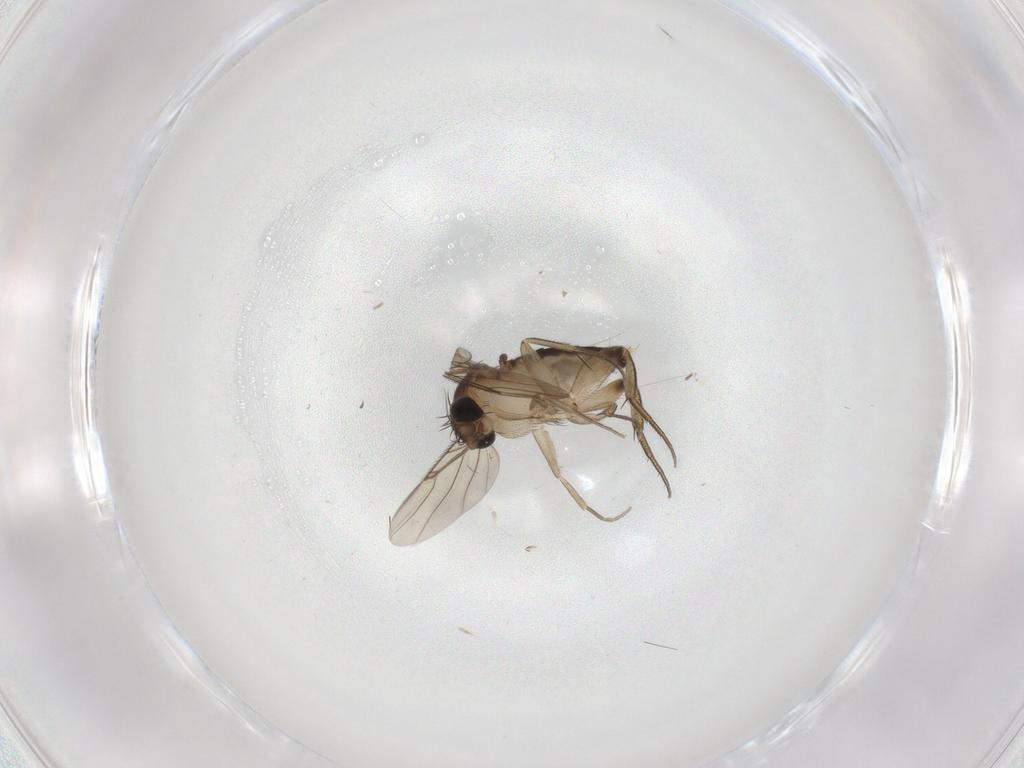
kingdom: Animalia
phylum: Arthropoda
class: Insecta
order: Diptera
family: Phoridae
